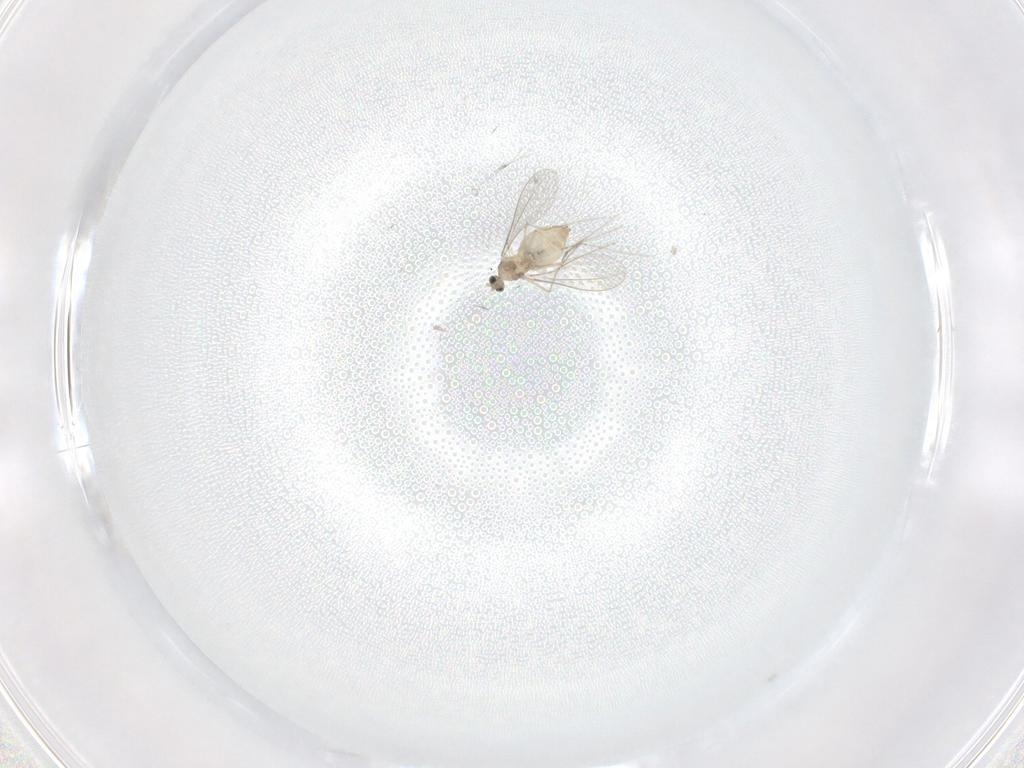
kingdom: Animalia
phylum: Arthropoda
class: Insecta
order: Diptera
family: Cecidomyiidae
